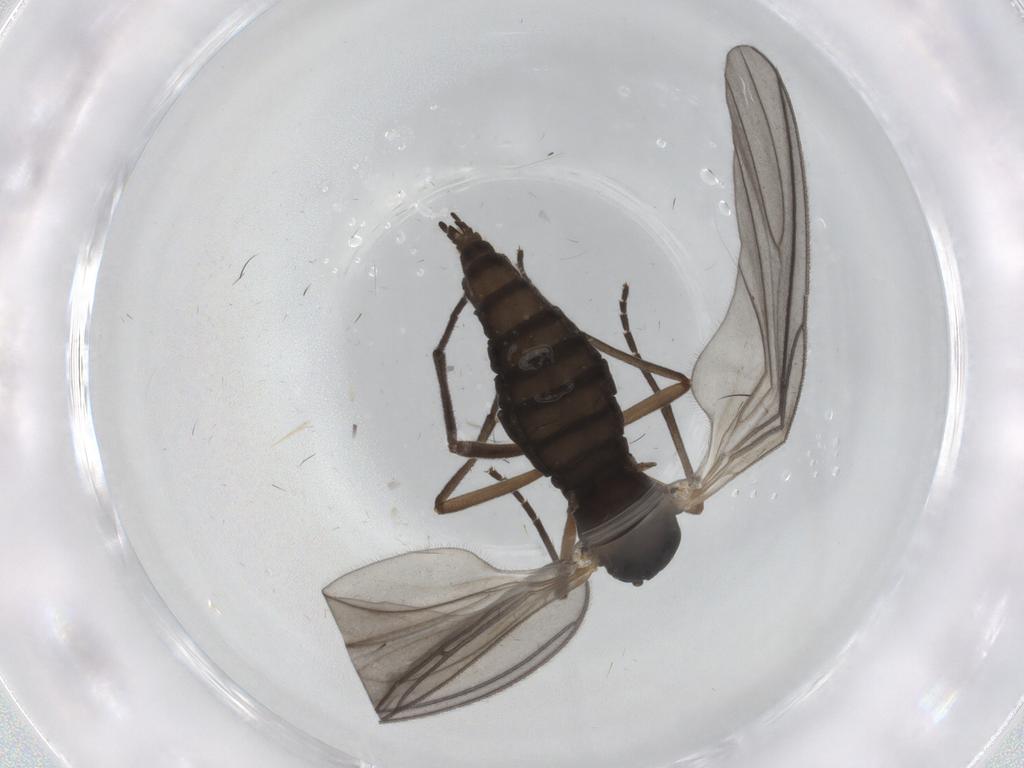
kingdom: Animalia
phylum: Arthropoda
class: Insecta
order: Diptera
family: Sciaridae
